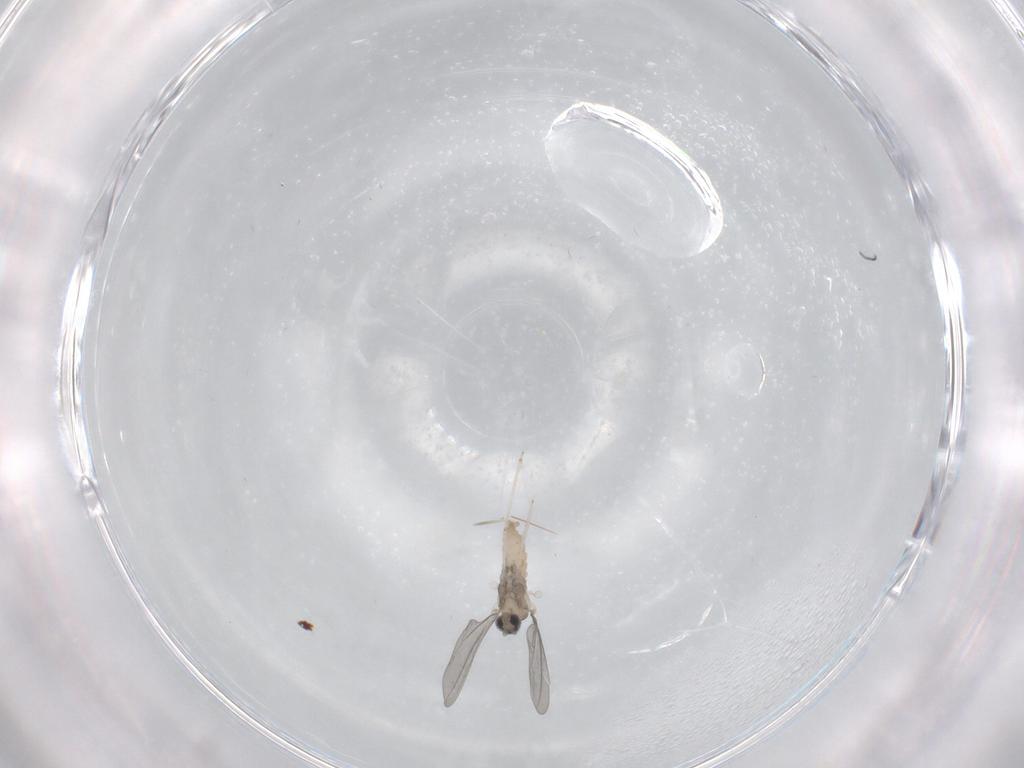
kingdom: Animalia
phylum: Arthropoda
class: Insecta
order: Diptera
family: Cecidomyiidae
